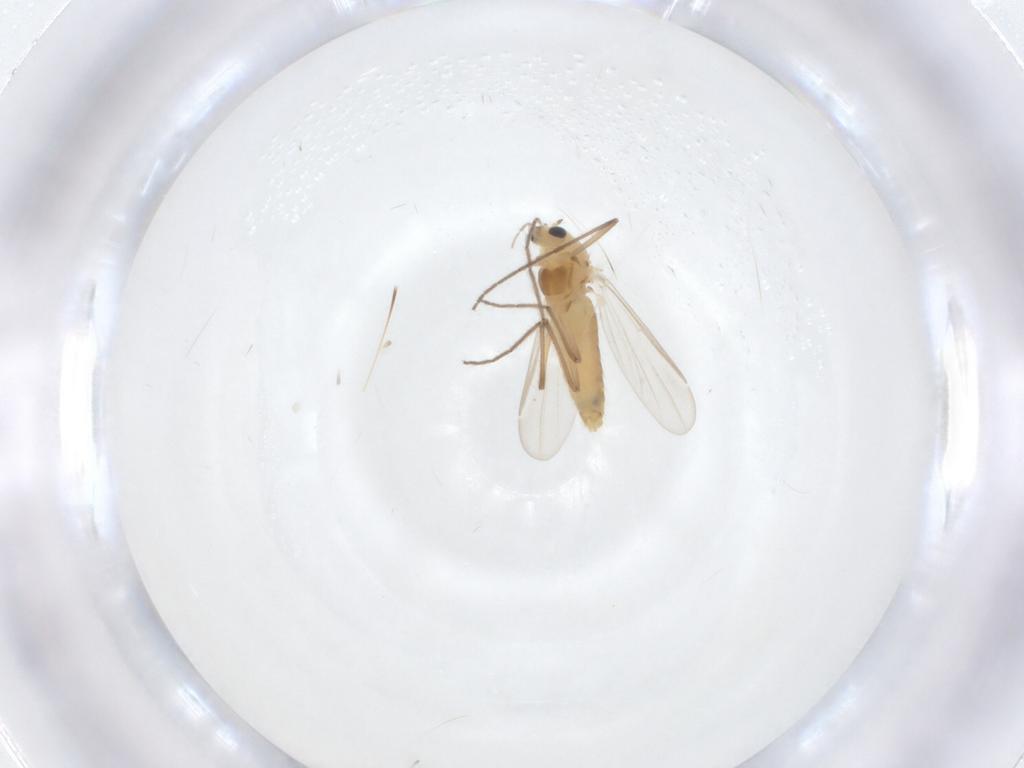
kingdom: Animalia
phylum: Arthropoda
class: Insecta
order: Diptera
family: Chironomidae
